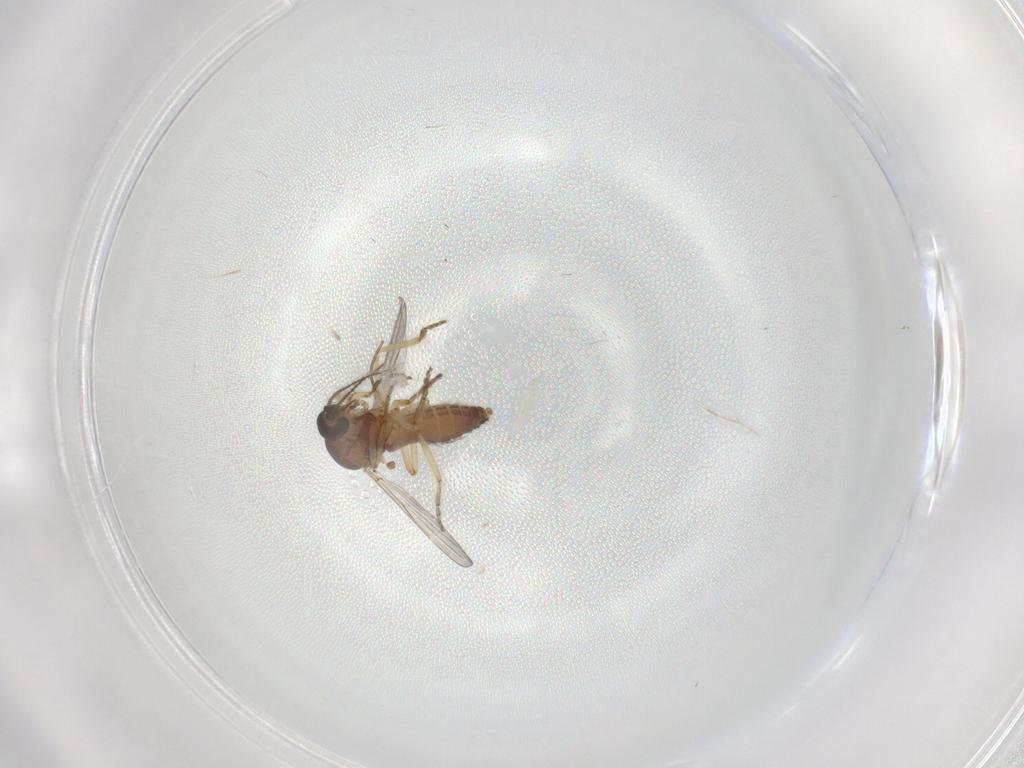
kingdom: Animalia
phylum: Arthropoda
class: Insecta
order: Diptera
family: Ceratopogonidae
